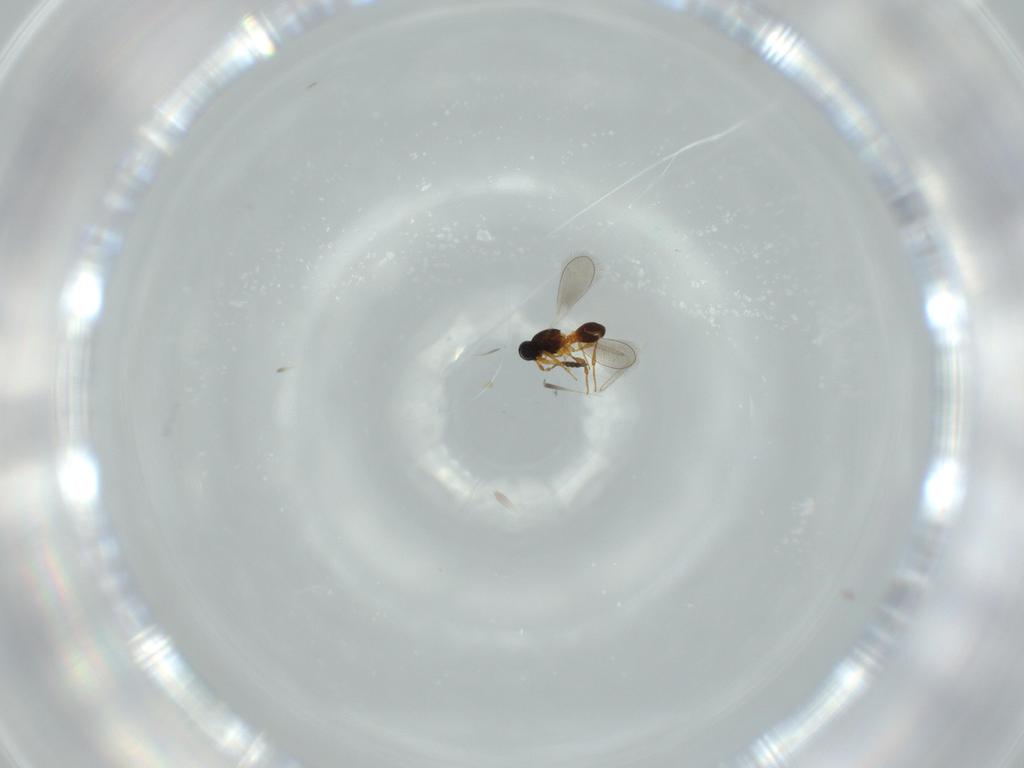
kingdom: Animalia
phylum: Arthropoda
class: Insecta
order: Hymenoptera
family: Platygastridae
